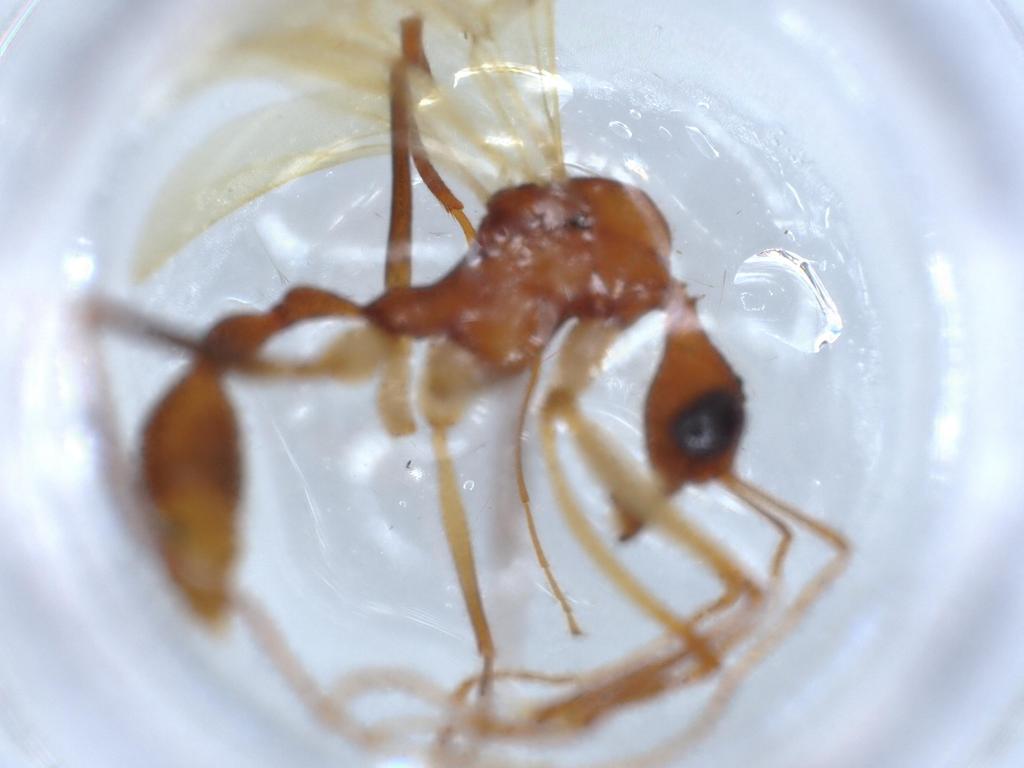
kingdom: Animalia
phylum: Arthropoda
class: Insecta
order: Hymenoptera
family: Formicidae
